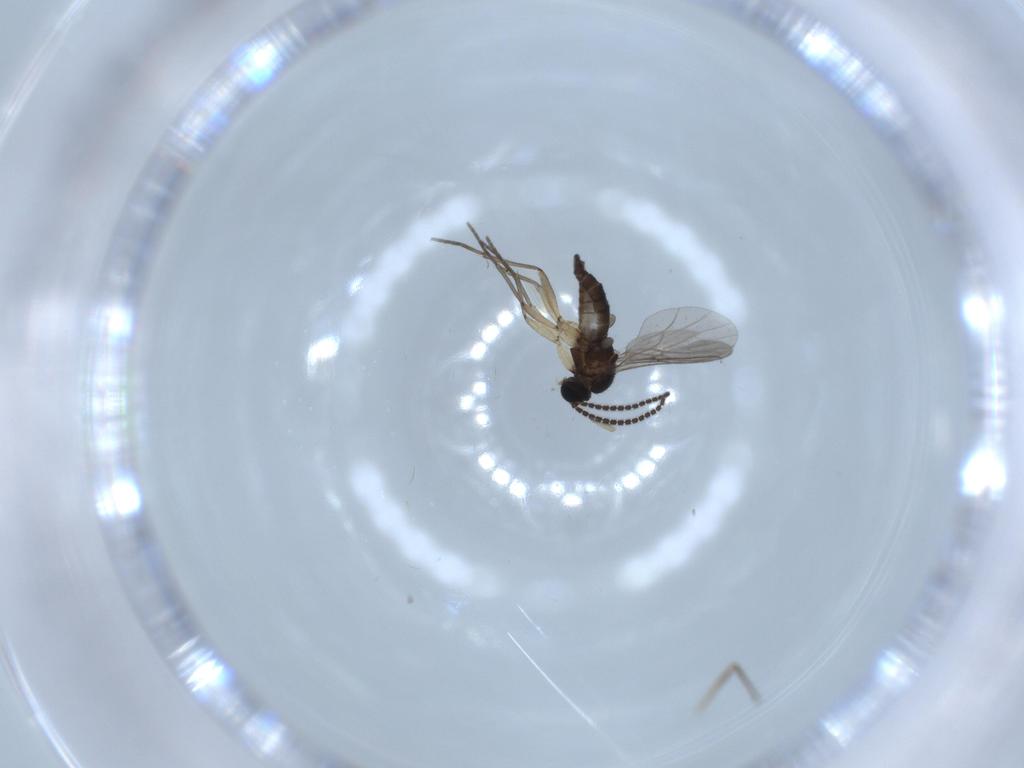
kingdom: Animalia
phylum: Arthropoda
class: Insecta
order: Diptera
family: Sciaridae
